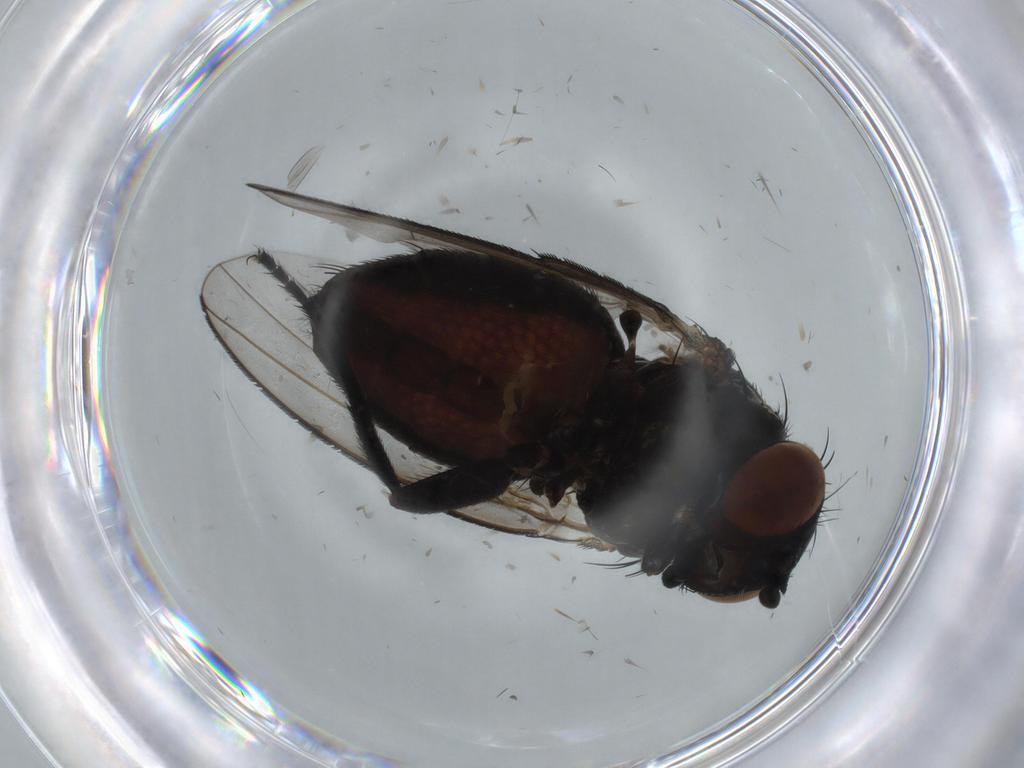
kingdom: Animalia
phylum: Arthropoda
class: Insecta
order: Diptera
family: Milichiidae
